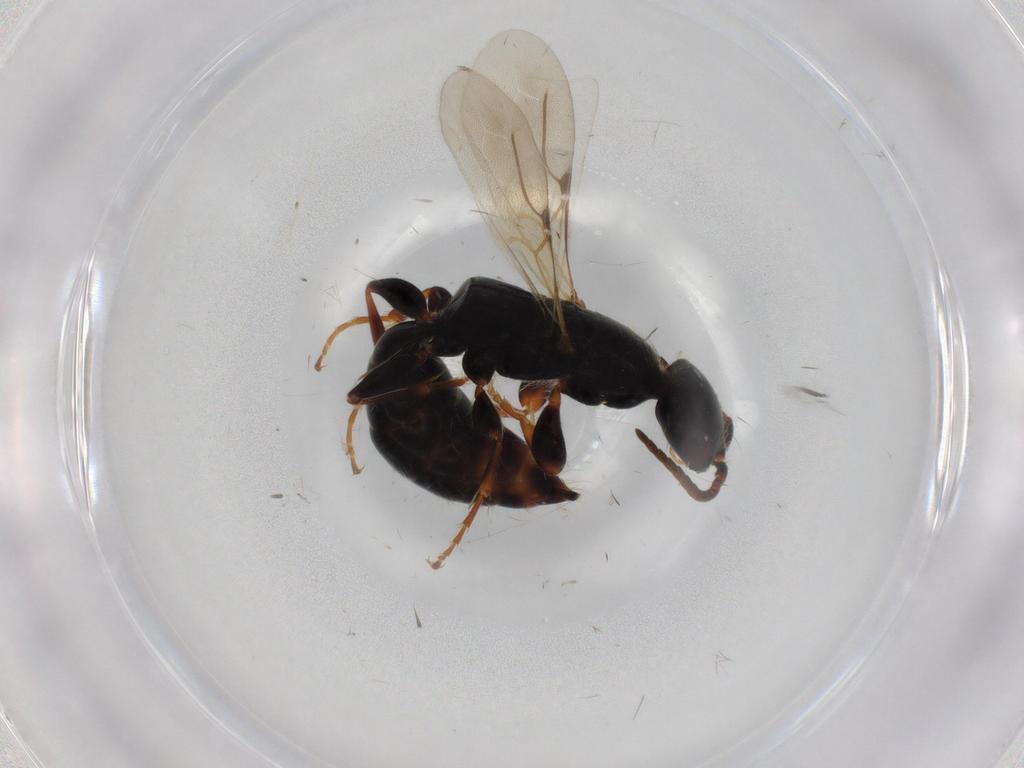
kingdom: Animalia
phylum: Arthropoda
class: Insecta
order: Hymenoptera
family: Bethylidae
